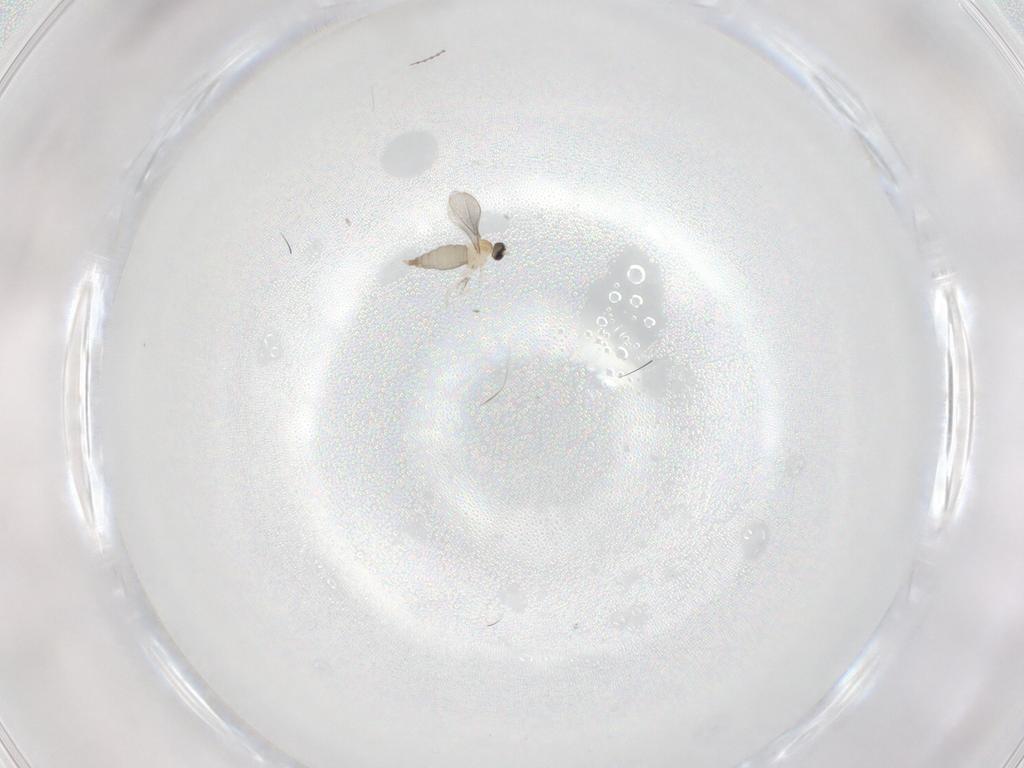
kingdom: Animalia
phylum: Arthropoda
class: Insecta
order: Diptera
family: Cecidomyiidae
